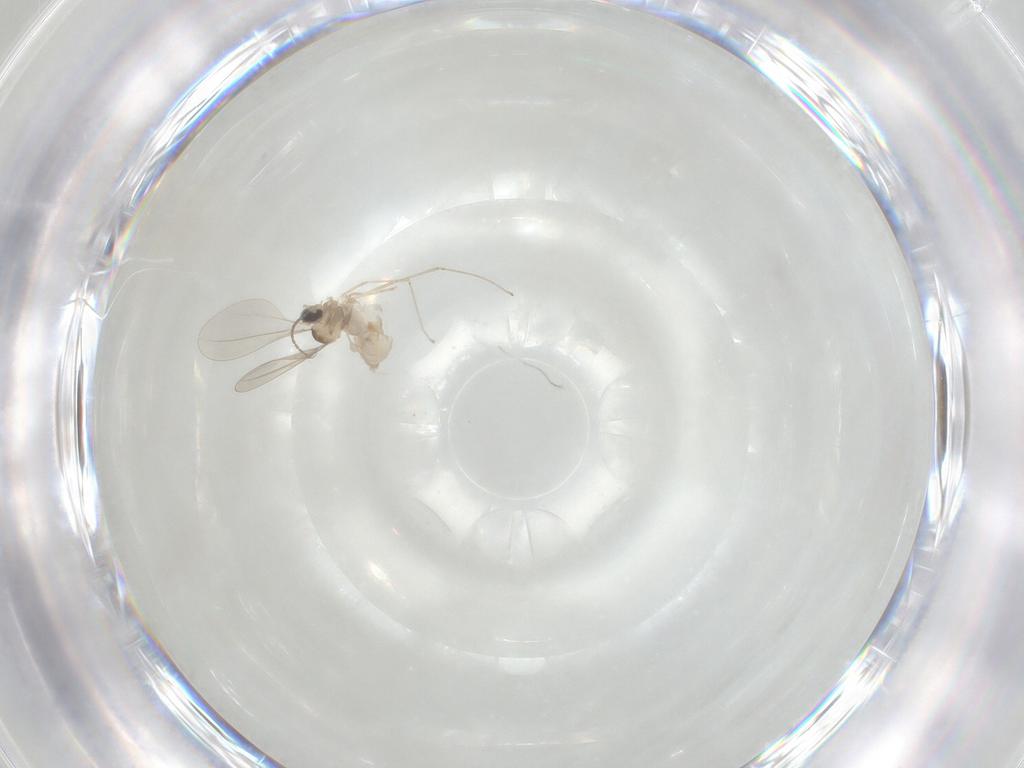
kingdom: Animalia
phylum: Arthropoda
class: Insecta
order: Diptera
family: Cecidomyiidae
